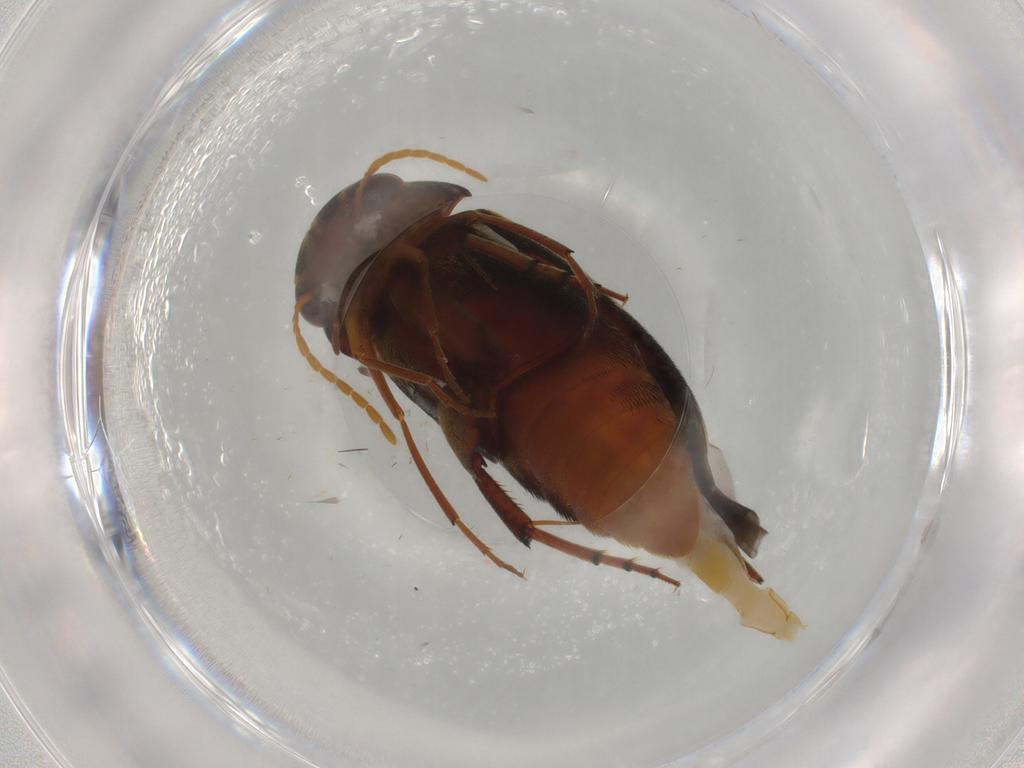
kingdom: Animalia
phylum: Arthropoda
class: Insecta
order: Coleoptera
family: Mordellidae
